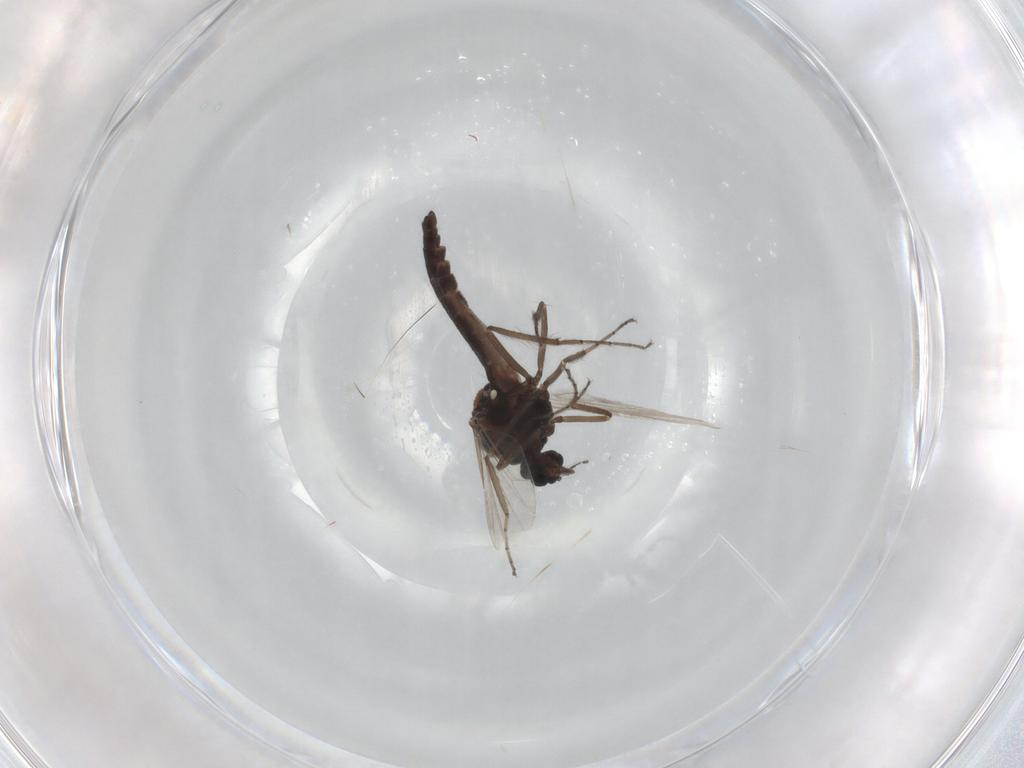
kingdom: Animalia
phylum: Arthropoda
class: Insecta
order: Diptera
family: Ceratopogonidae
